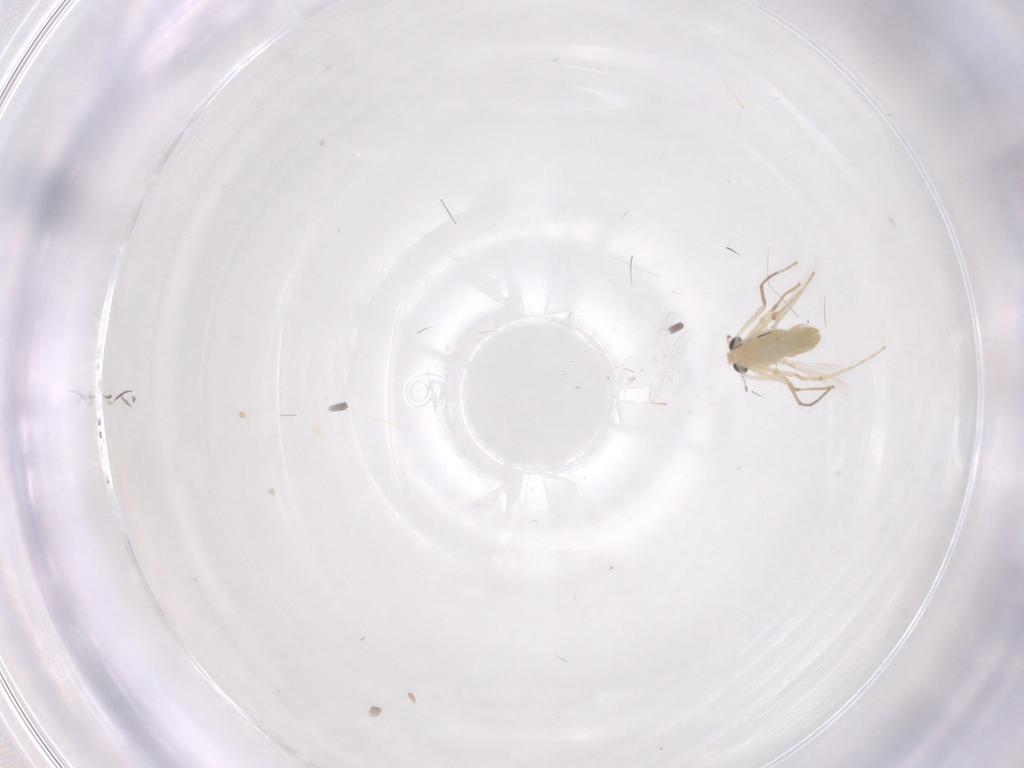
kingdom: Animalia
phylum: Arthropoda
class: Insecta
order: Diptera
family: Chironomidae
